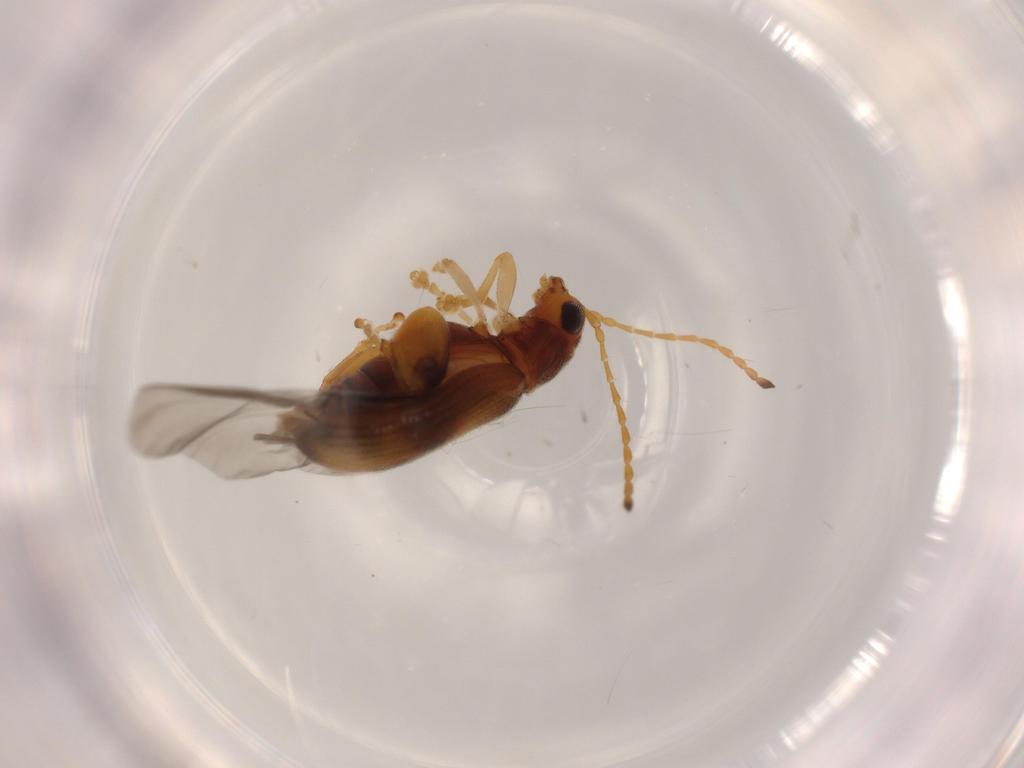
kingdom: Animalia
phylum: Arthropoda
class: Insecta
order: Coleoptera
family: Chrysomelidae
